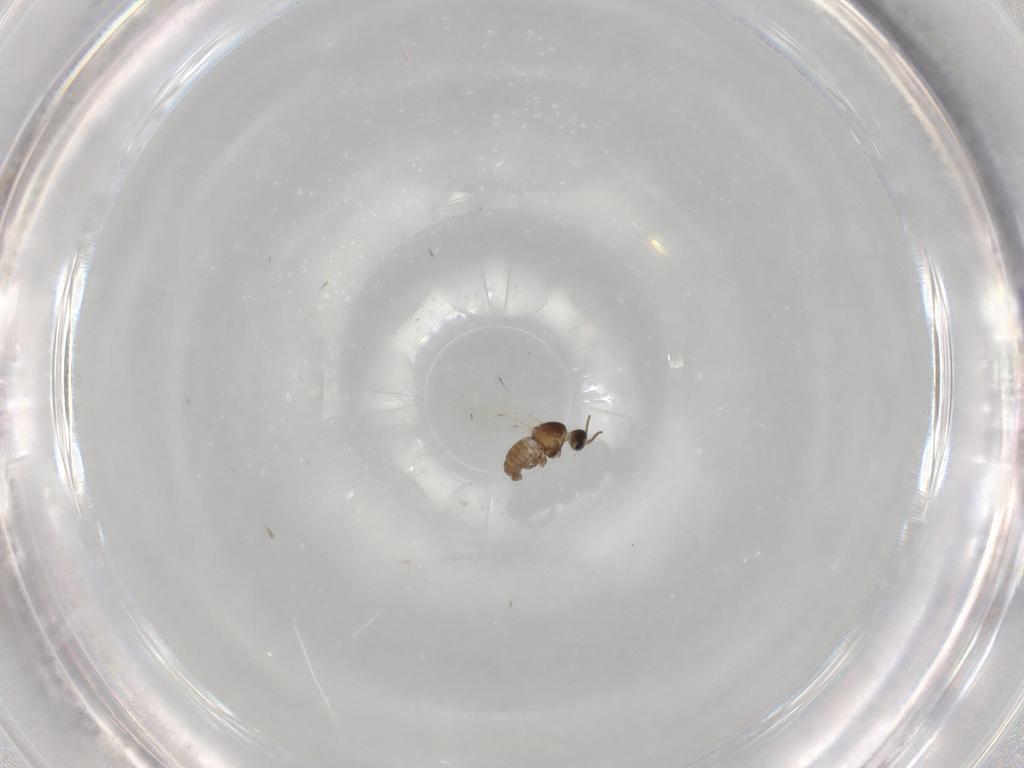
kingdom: Animalia
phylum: Arthropoda
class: Insecta
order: Diptera
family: Cecidomyiidae
